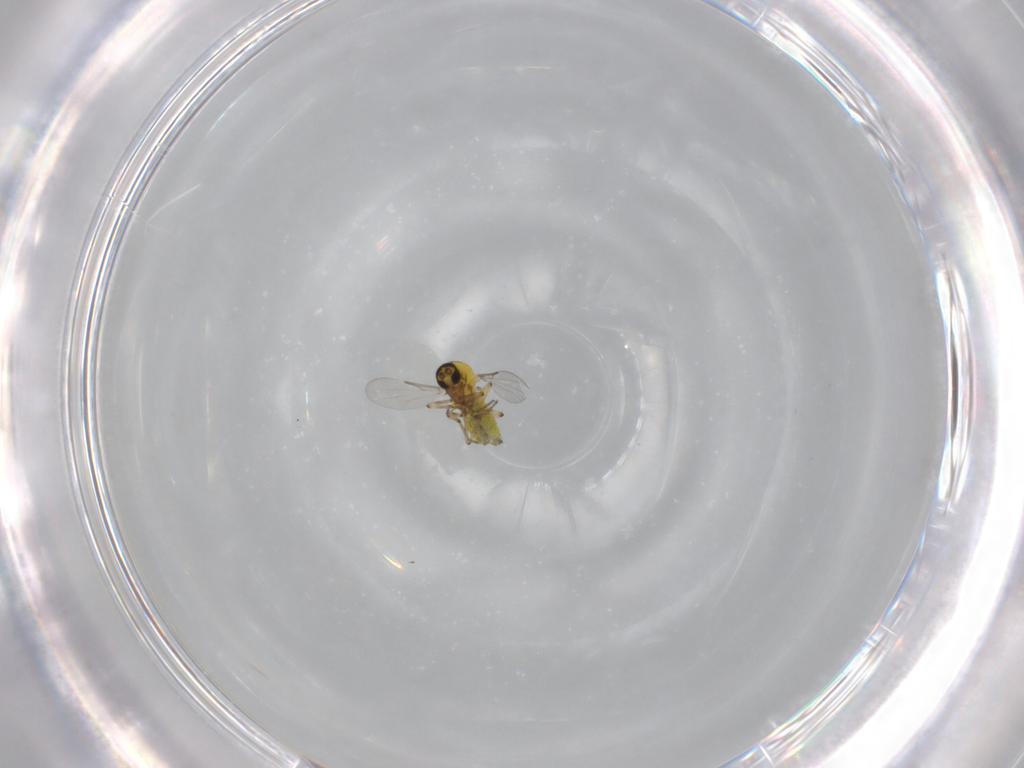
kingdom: Animalia
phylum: Arthropoda
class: Insecta
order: Diptera
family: Ceratopogonidae
